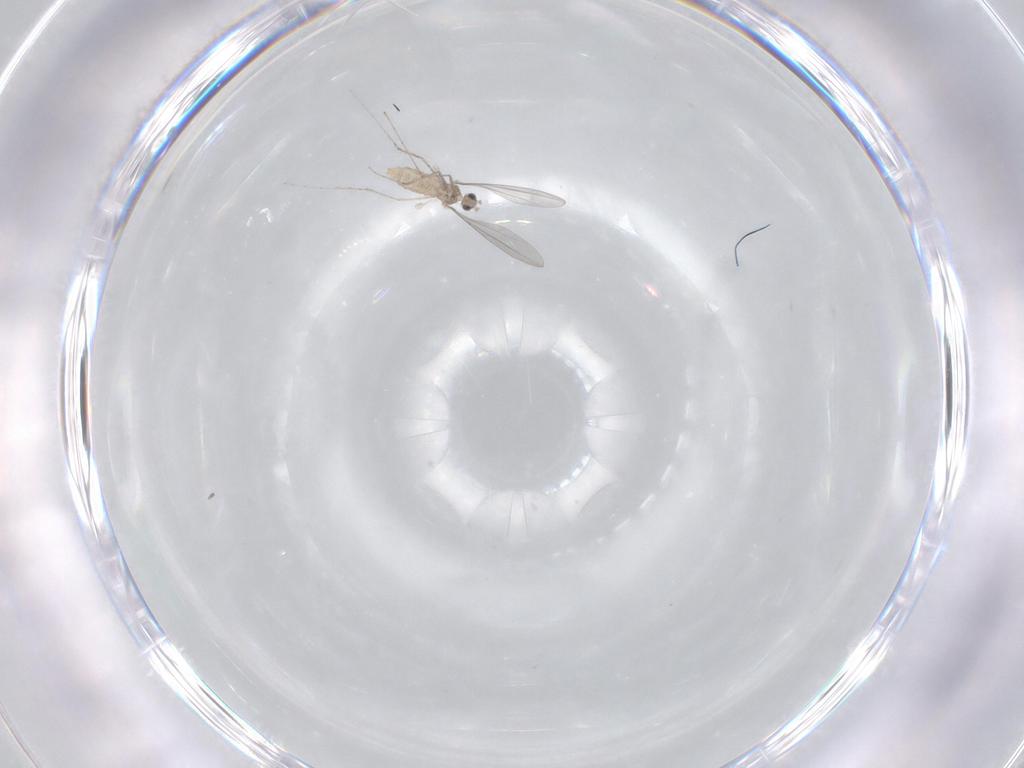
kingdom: Animalia
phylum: Arthropoda
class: Insecta
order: Diptera
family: Cecidomyiidae
